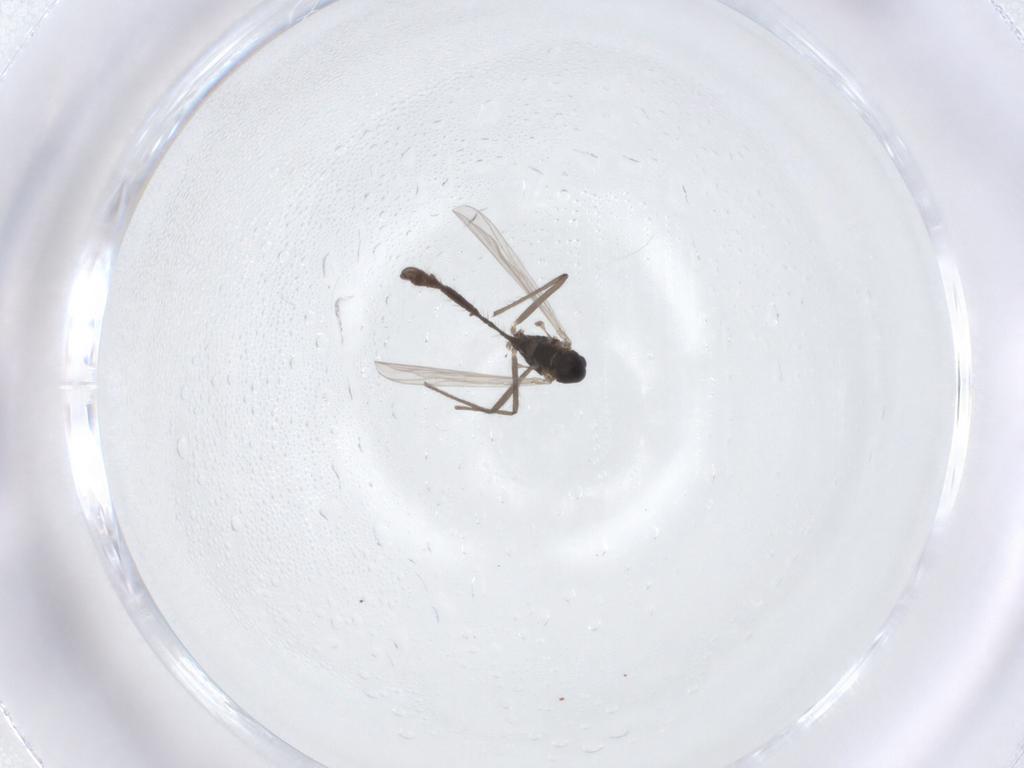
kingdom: Animalia
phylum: Arthropoda
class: Insecta
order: Diptera
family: Chironomidae
